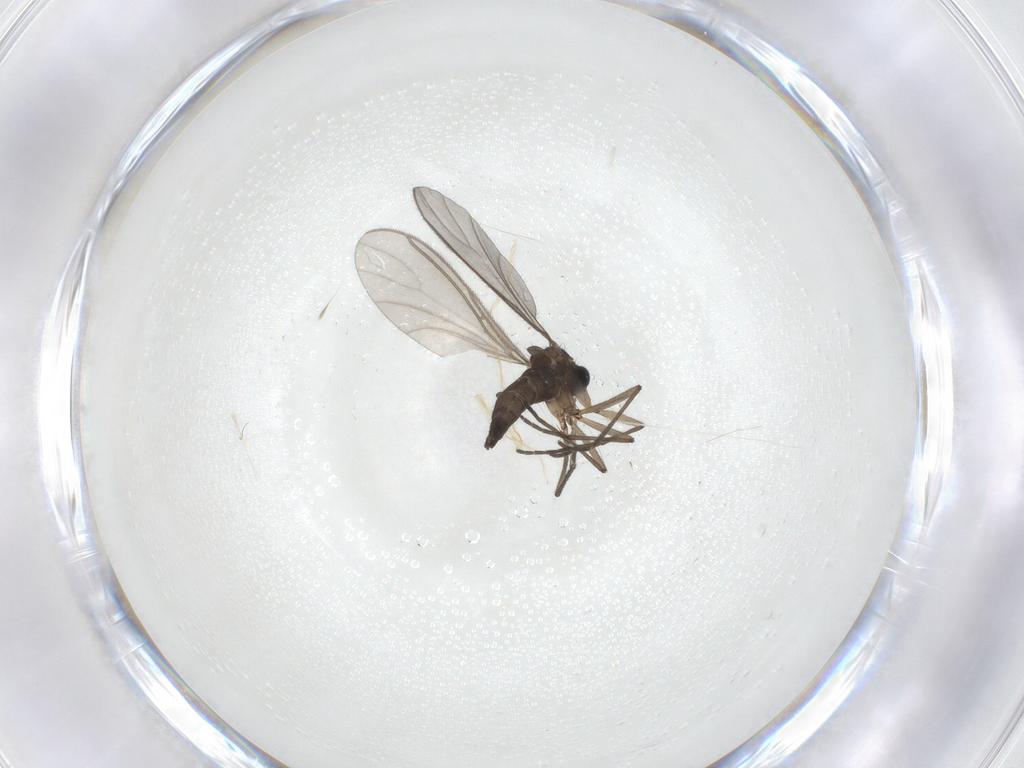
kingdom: Animalia
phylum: Arthropoda
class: Insecta
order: Diptera
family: Sciaridae
